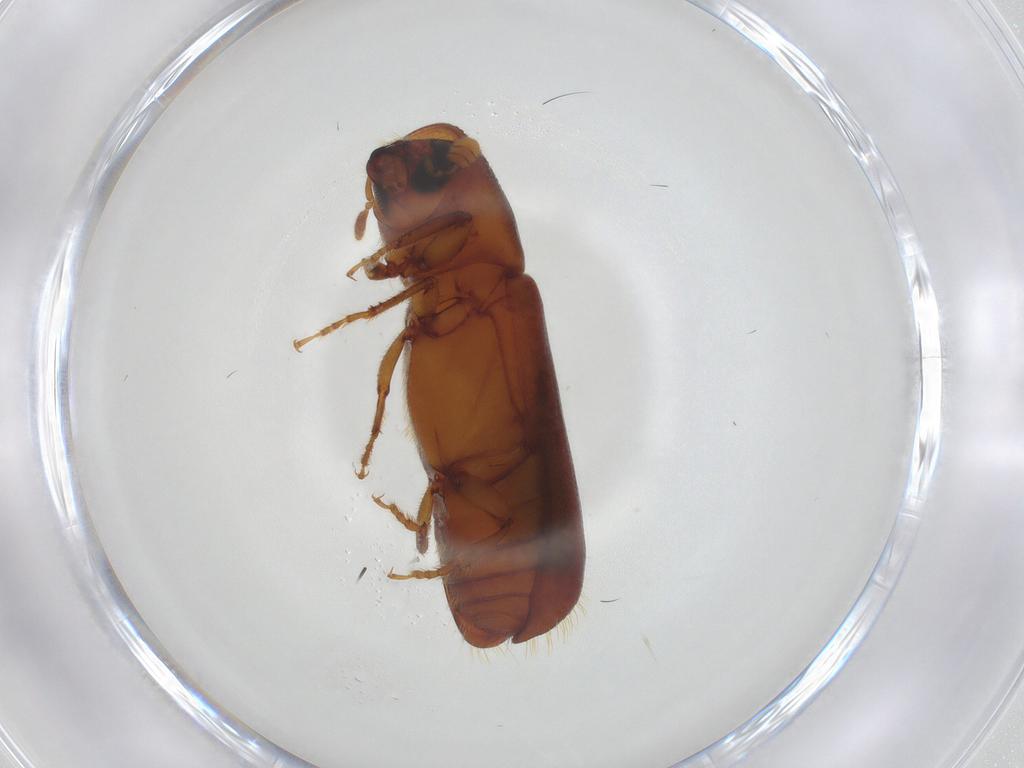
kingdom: Animalia
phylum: Arthropoda
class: Insecta
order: Coleoptera
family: Curculionidae
